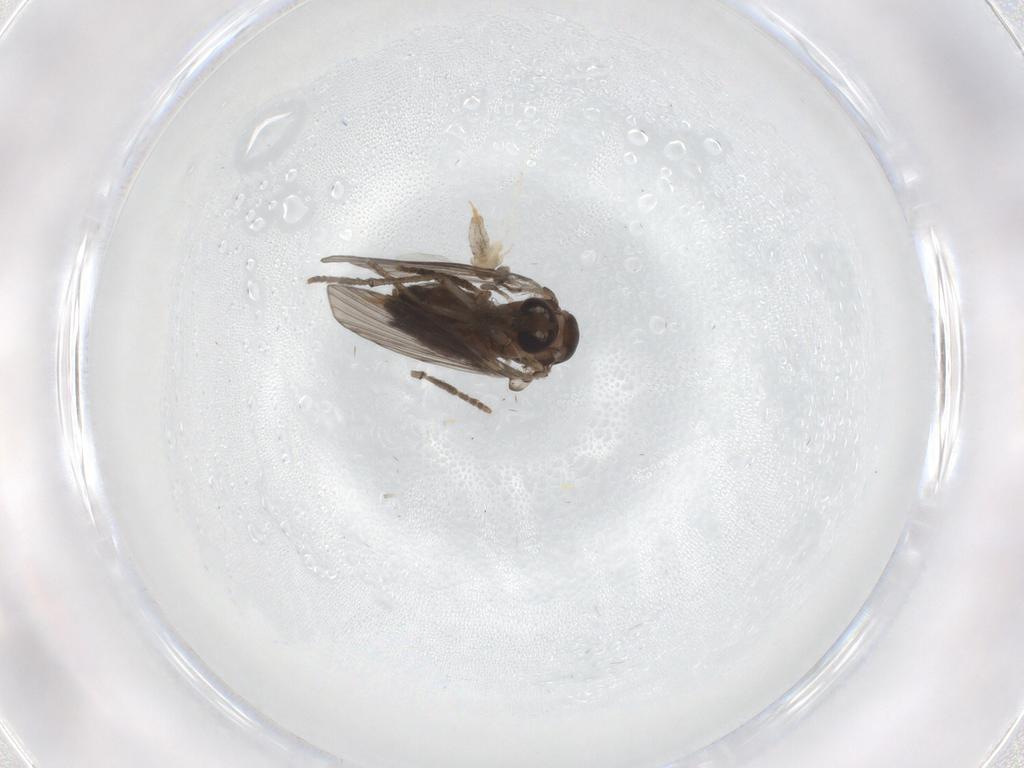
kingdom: Animalia
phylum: Arthropoda
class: Insecta
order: Diptera
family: Psychodidae
